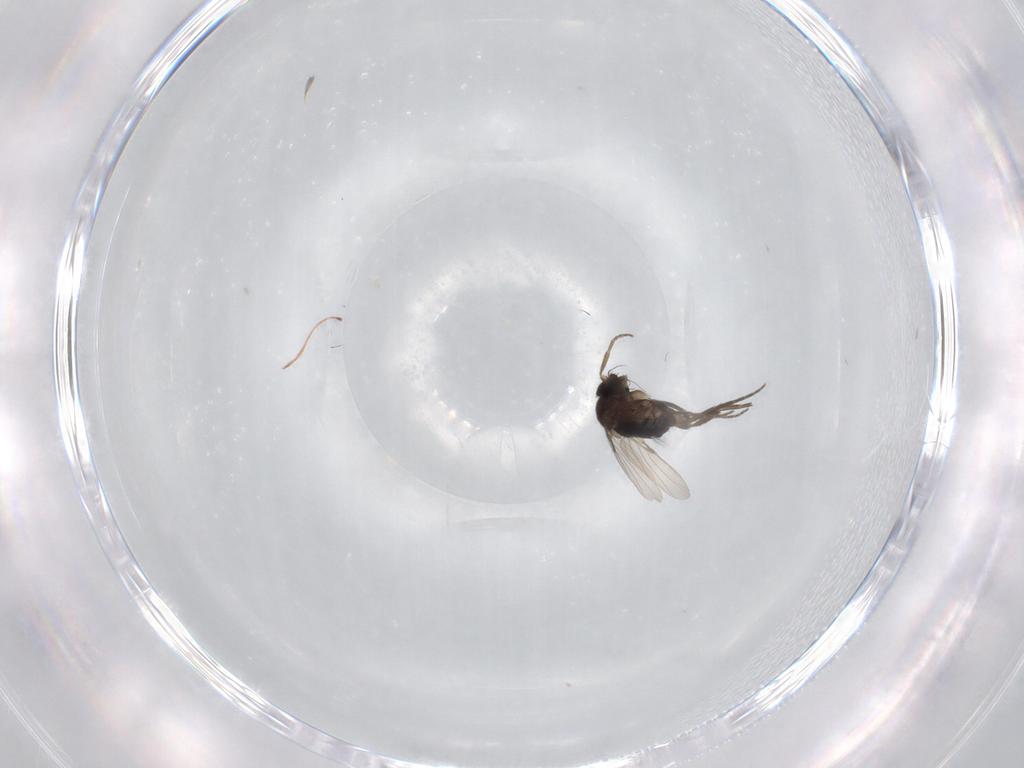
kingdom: Animalia
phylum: Arthropoda
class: Insecta
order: Diptera
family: Phoridae
